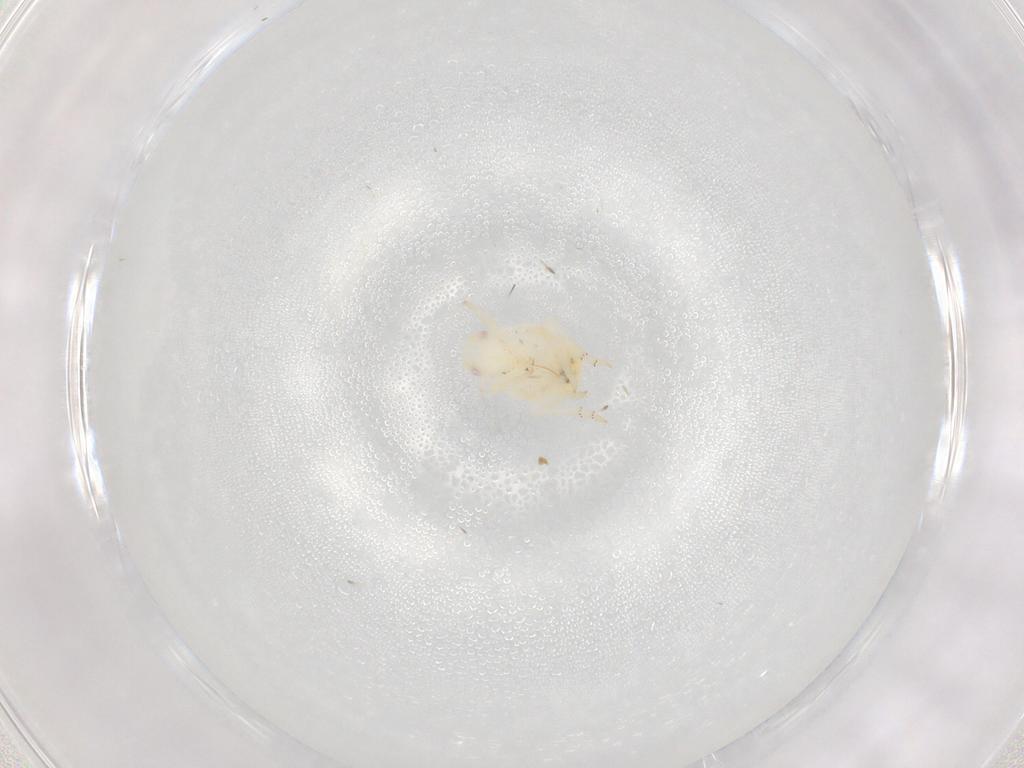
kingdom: Animalia
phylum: Arthropoda
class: Insecta
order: Hemiptera
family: Flatidae
